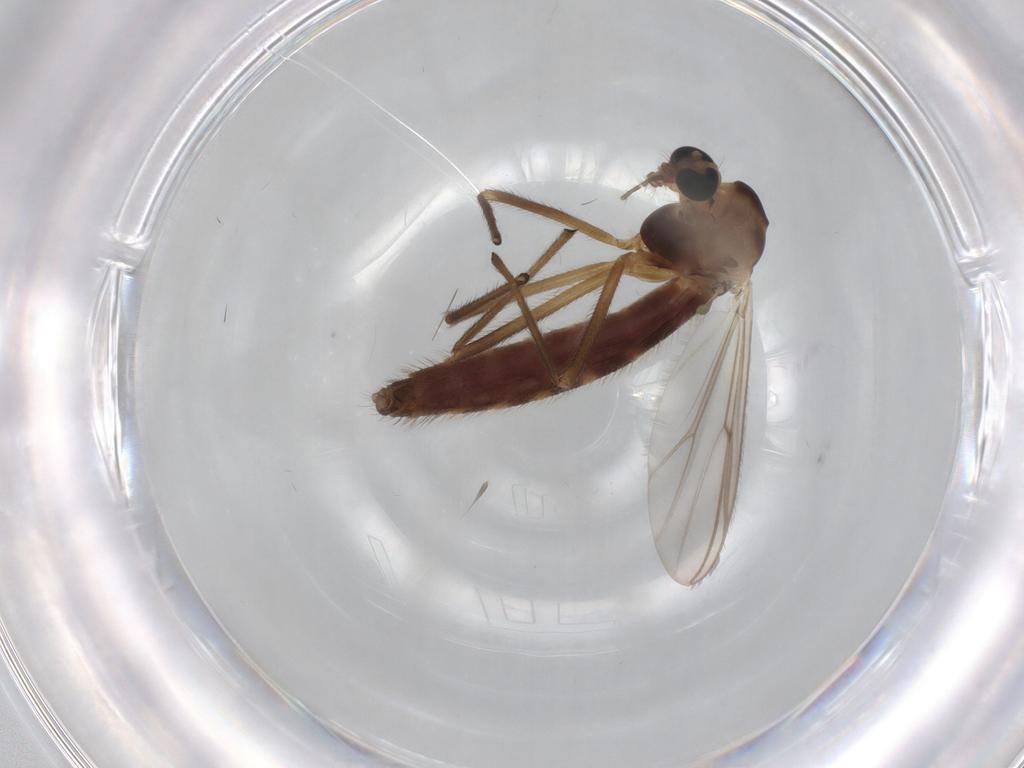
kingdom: Animalia
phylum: Arthropoda
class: Insecta
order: Diptera
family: Chironomidae
